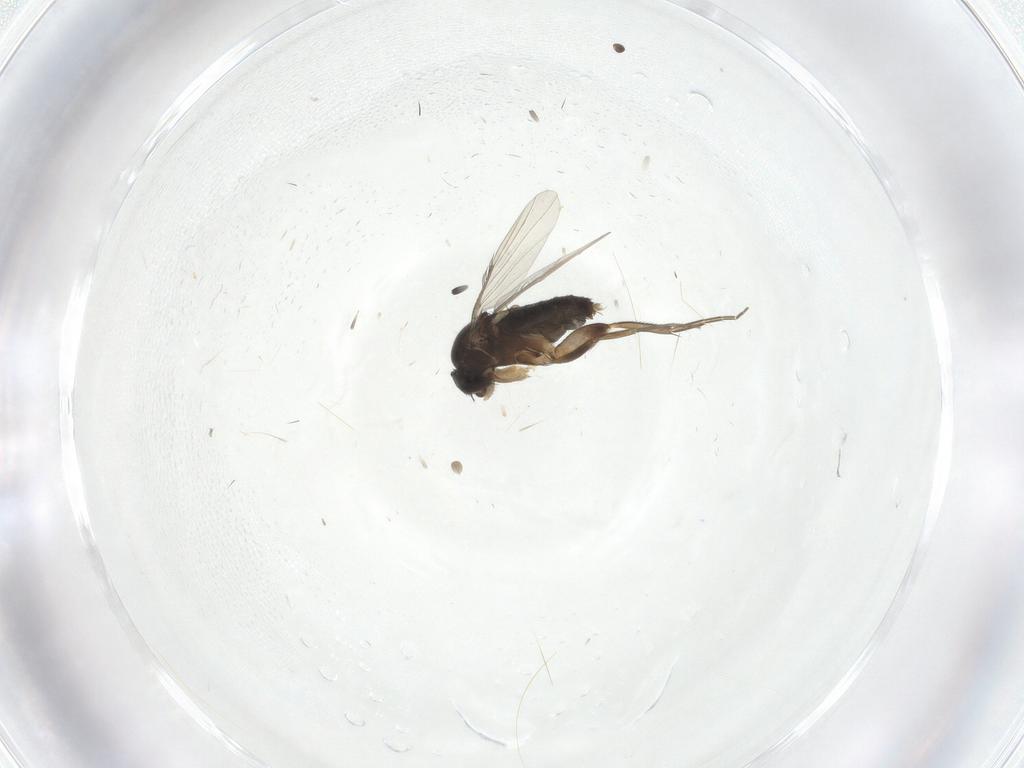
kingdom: Animalia
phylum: Arthropoda
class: Insecta
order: Diptera
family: Phoridae
